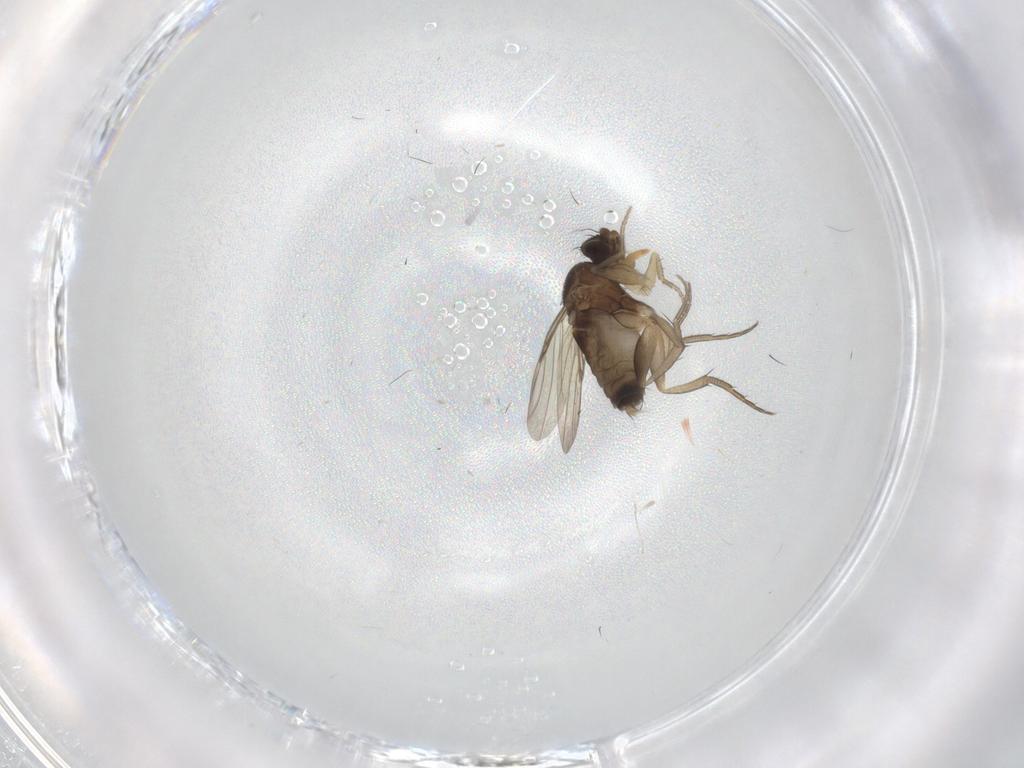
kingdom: Animalia
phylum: Arthropoda
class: Insecta
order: Diptera
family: Phoridae
